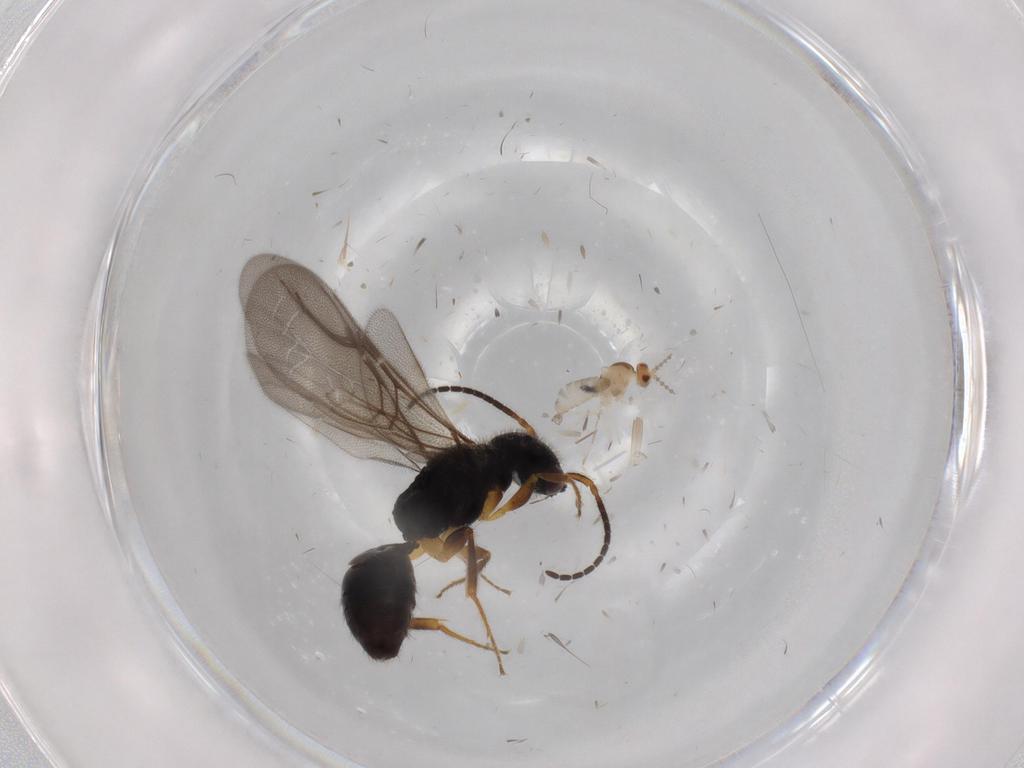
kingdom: Animalia
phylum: Arthropoda
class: Insecta
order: Hymenoptera
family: Bethylidae
